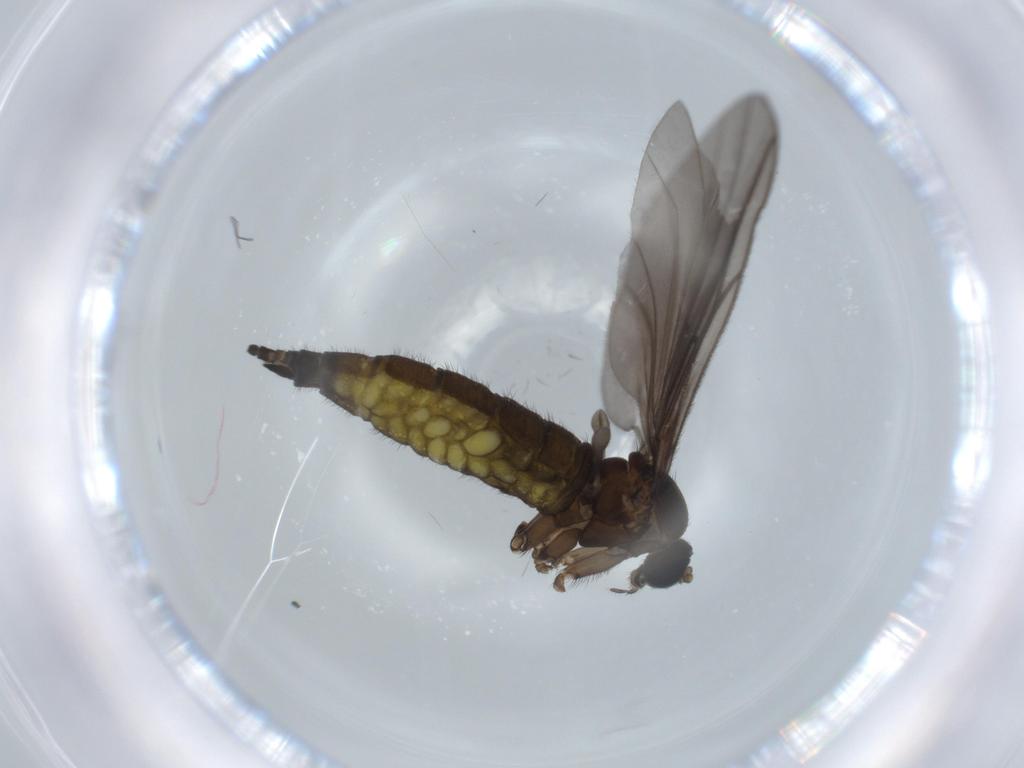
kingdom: Animalia
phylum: Arthropoda
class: Insecta
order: Diptera
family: Sciaridae
